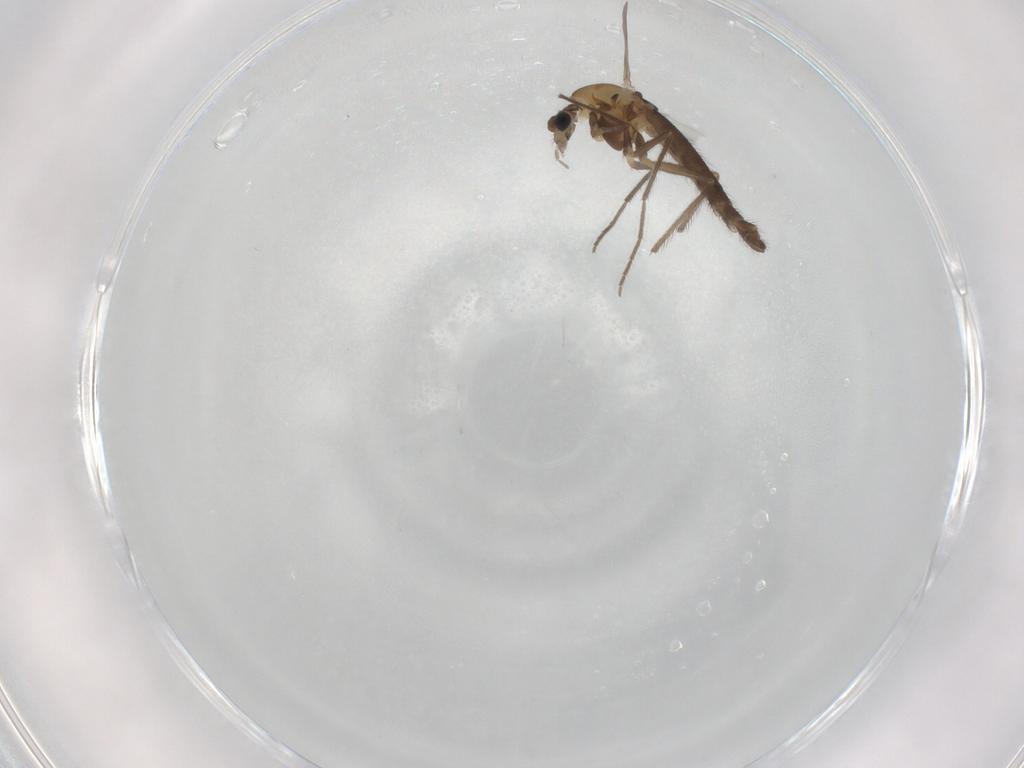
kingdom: Animalia
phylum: Arthropoda
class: Insecta
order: Diptera
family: Chironomidae
